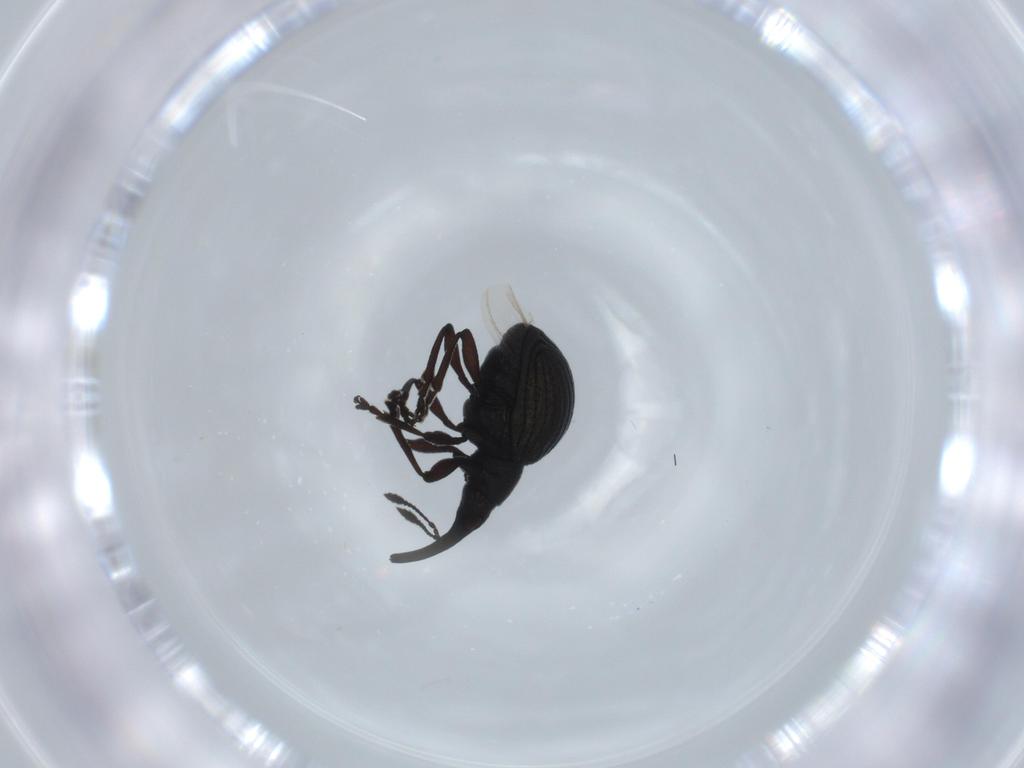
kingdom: Animalia
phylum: Arthropoda
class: Insecta
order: Coleoptera
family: Brentidae
